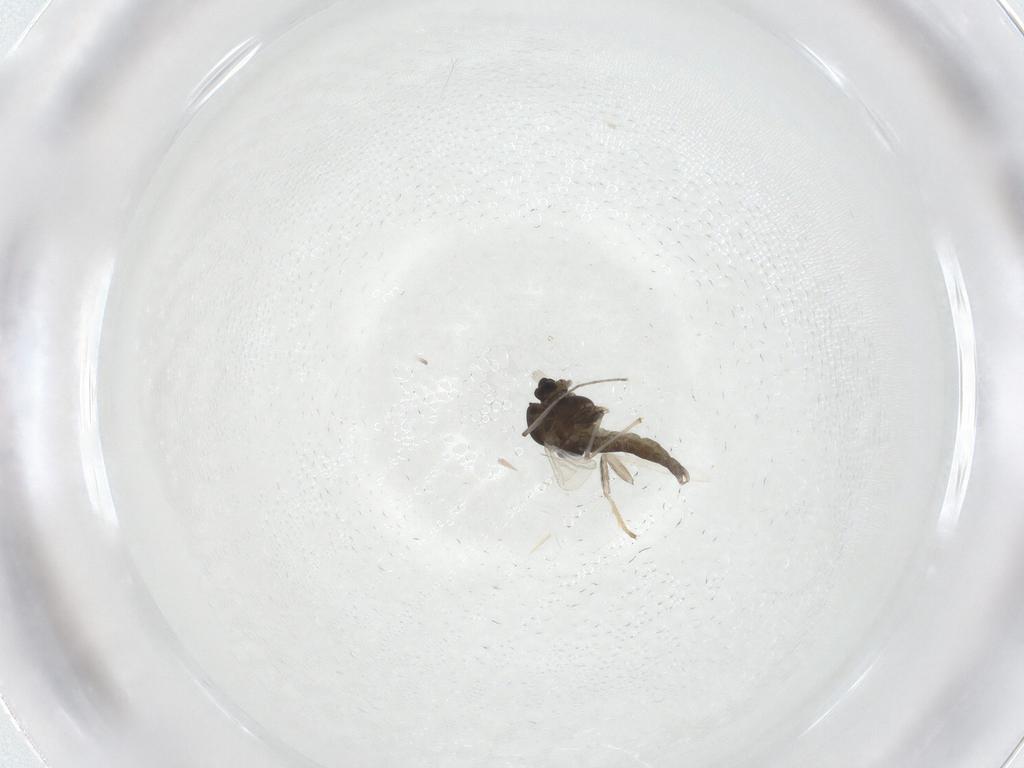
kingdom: Animalia
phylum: Arthropoda
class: Insecta
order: Diptera
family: Chironomidae
